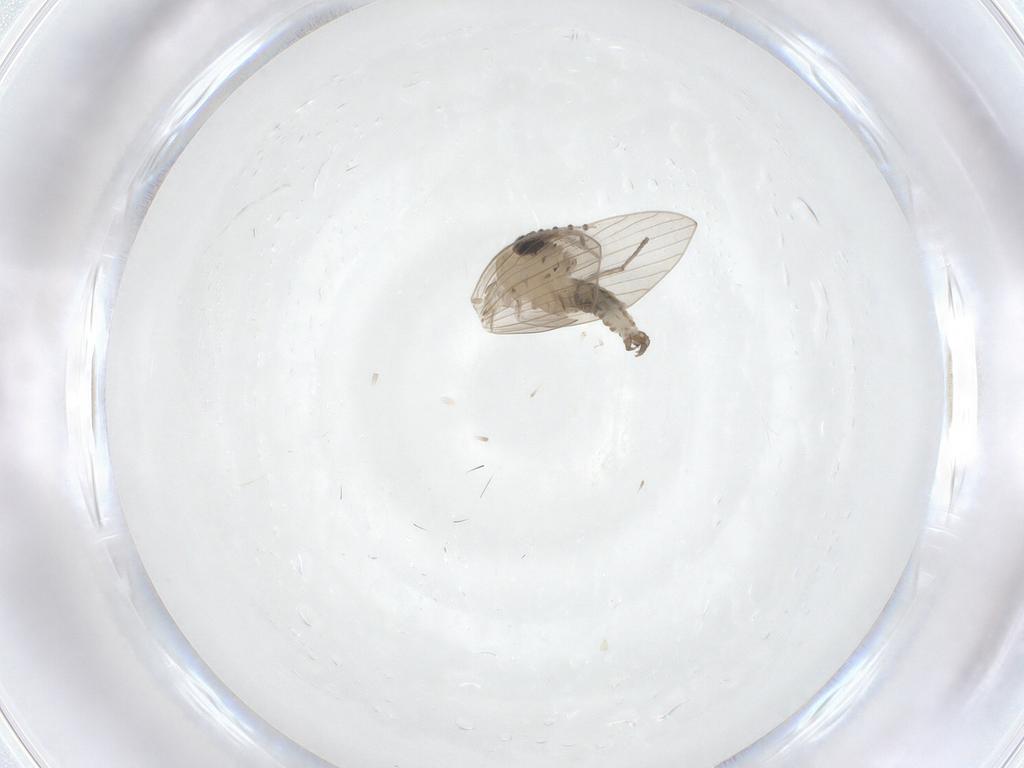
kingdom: Animalia
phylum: Arthropoda
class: Insecta
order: Diptera
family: Psychodidae
